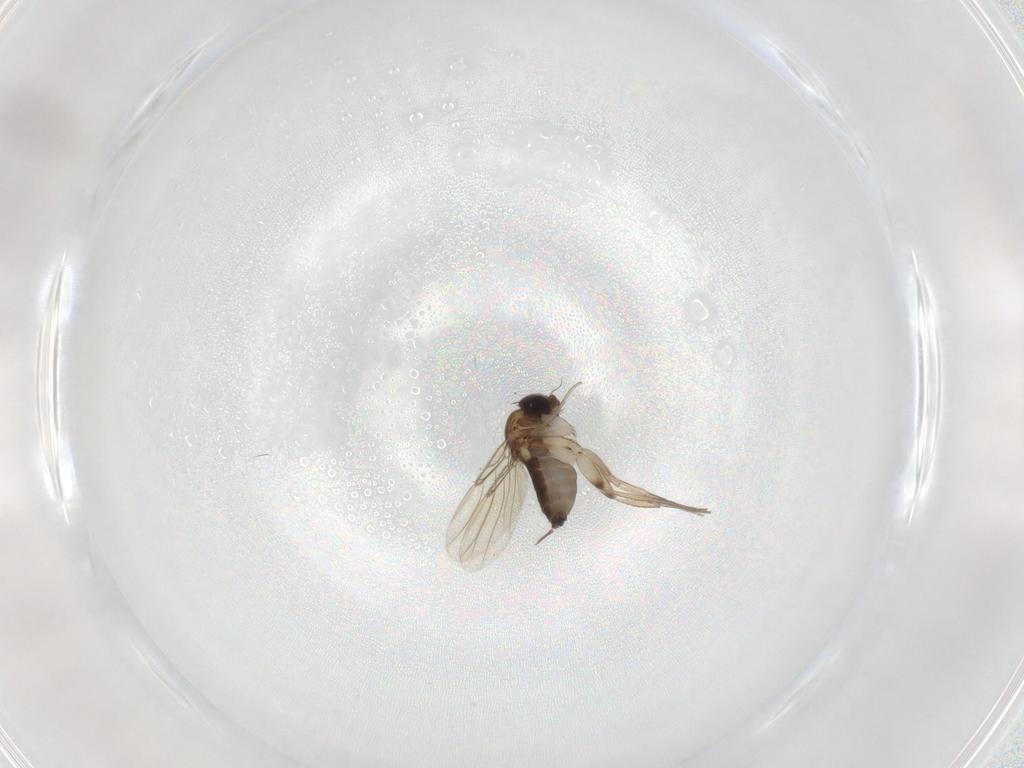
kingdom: Animalia
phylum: Arthropoda
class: Insecta
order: Diptera
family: Phoridae
